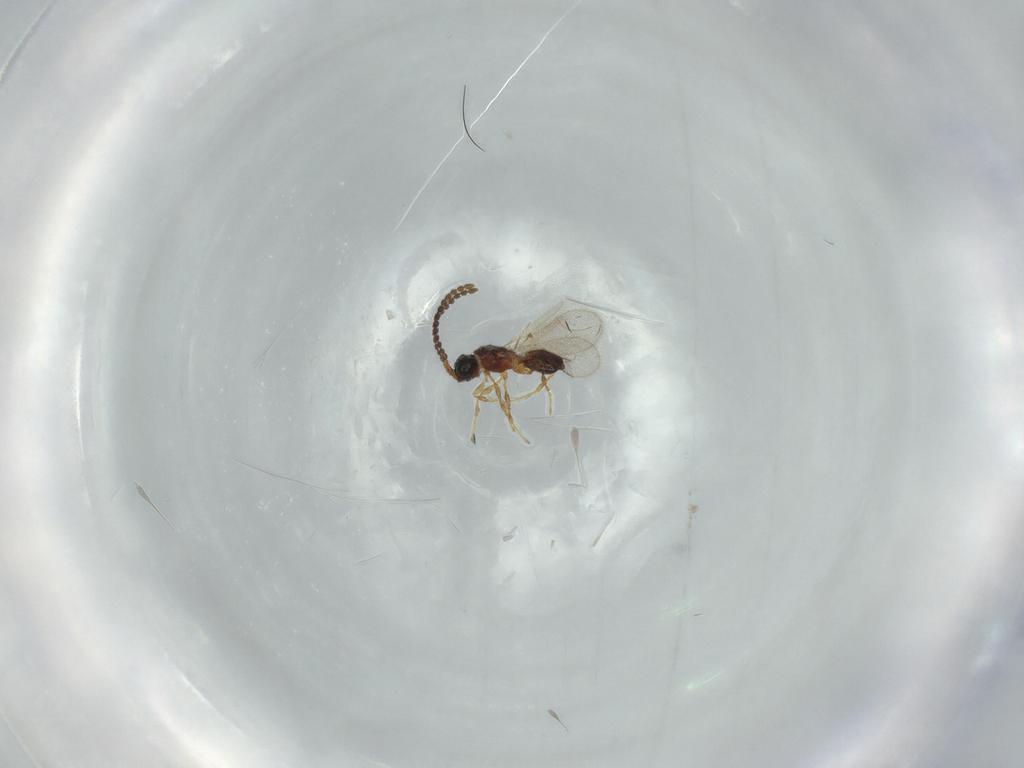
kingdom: Animalia
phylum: Arthropoda
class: Insecta
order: Hymenoptera
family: Diapriidae
